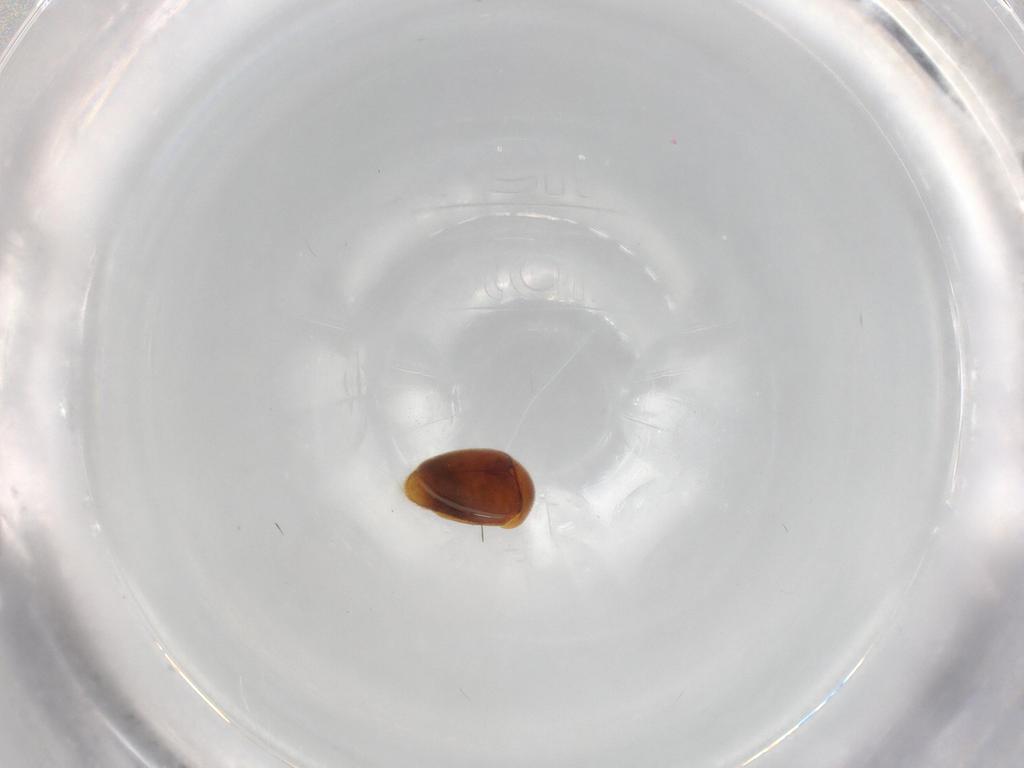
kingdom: Animalia
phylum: Arthropoda
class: Insecta
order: Coleoptera
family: Corylophidae
